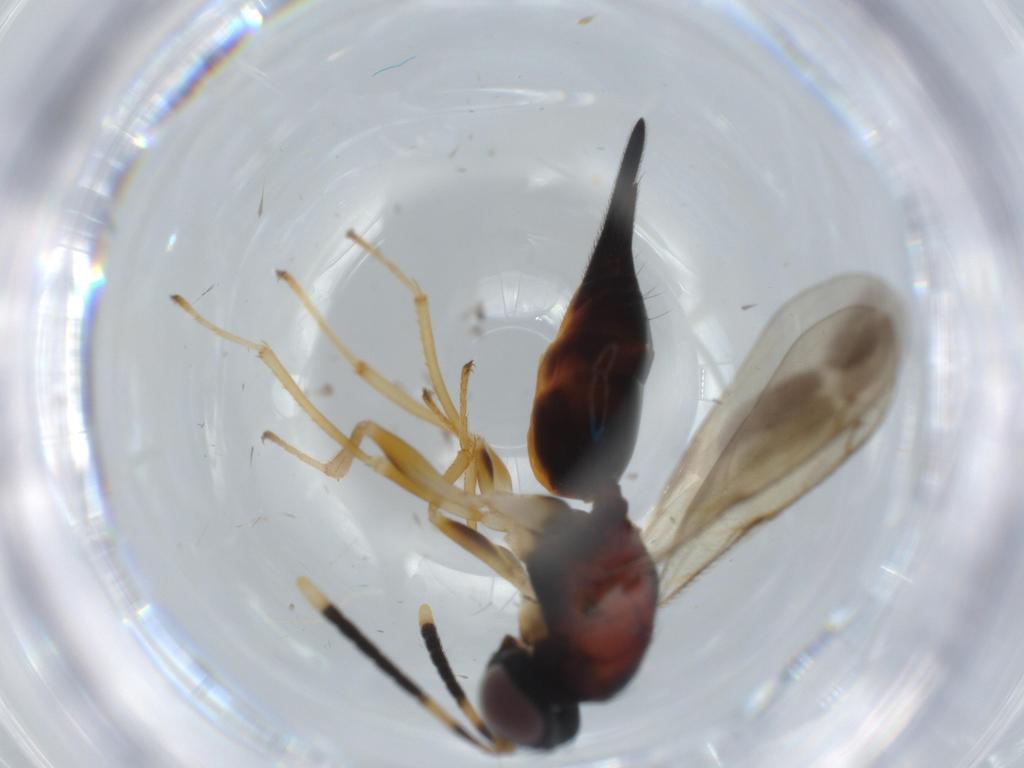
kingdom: Animalia
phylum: Arthropoda
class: Insecta
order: Hymenoptera
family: Diparidae
